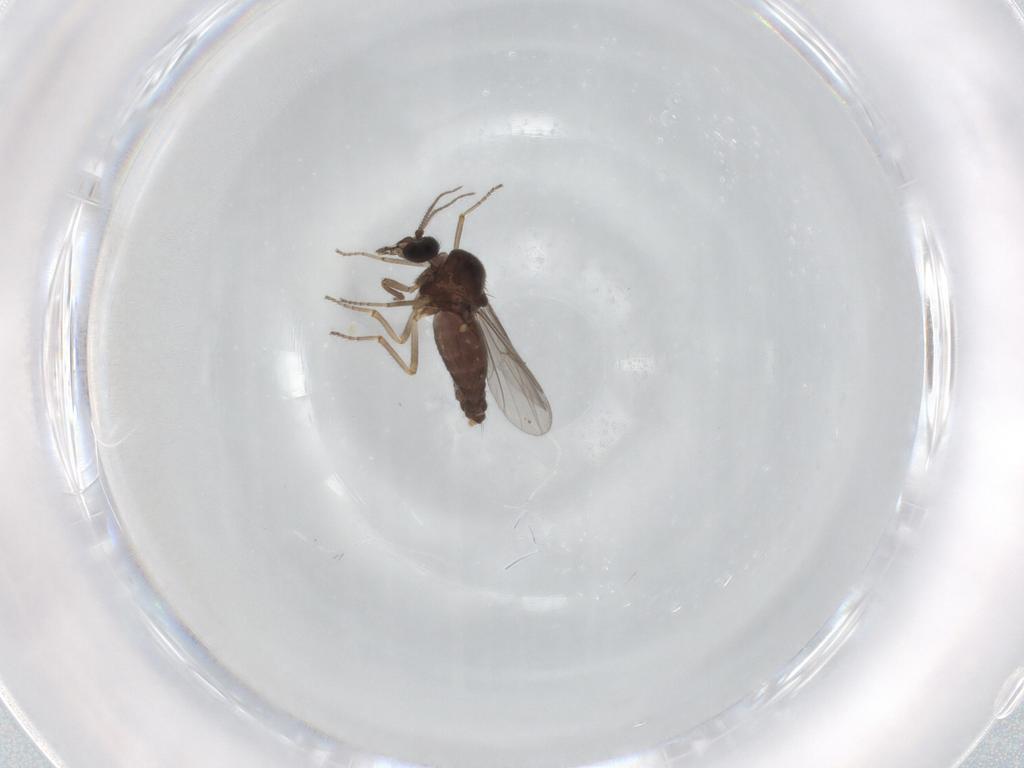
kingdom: Animalia
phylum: Arthropoda
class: Insecta
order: Diptera
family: Ceratopogonidae
